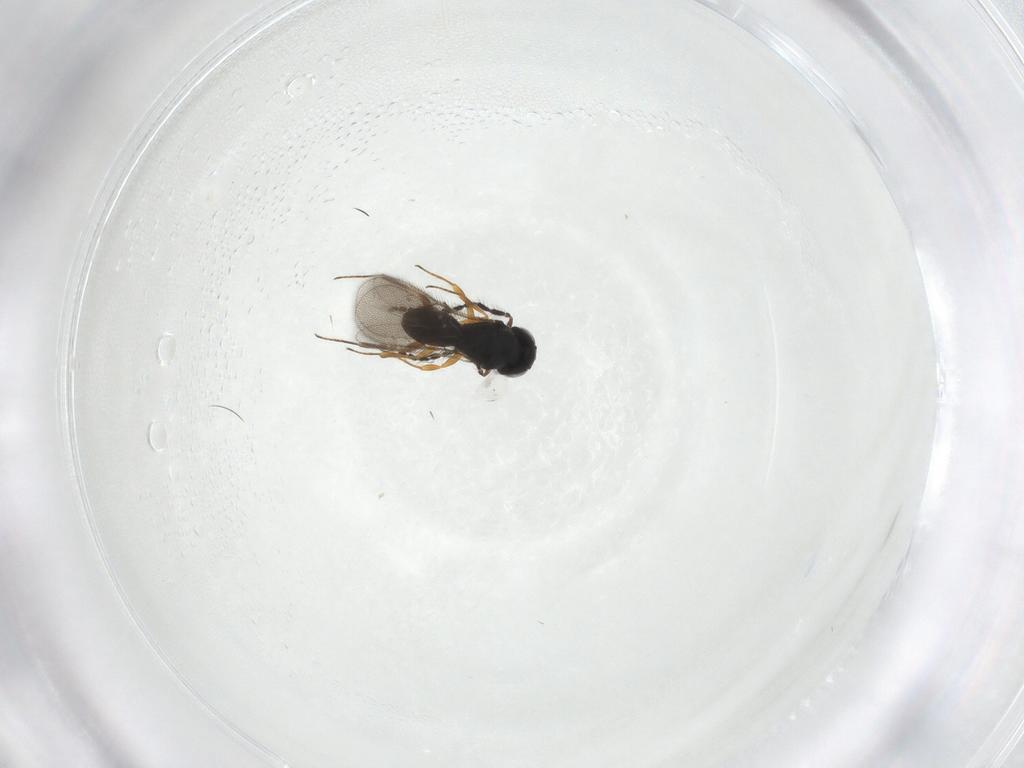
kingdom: Animalia
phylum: Arthropoda
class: Insecta
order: Hymenoptera
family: Scelionidae
